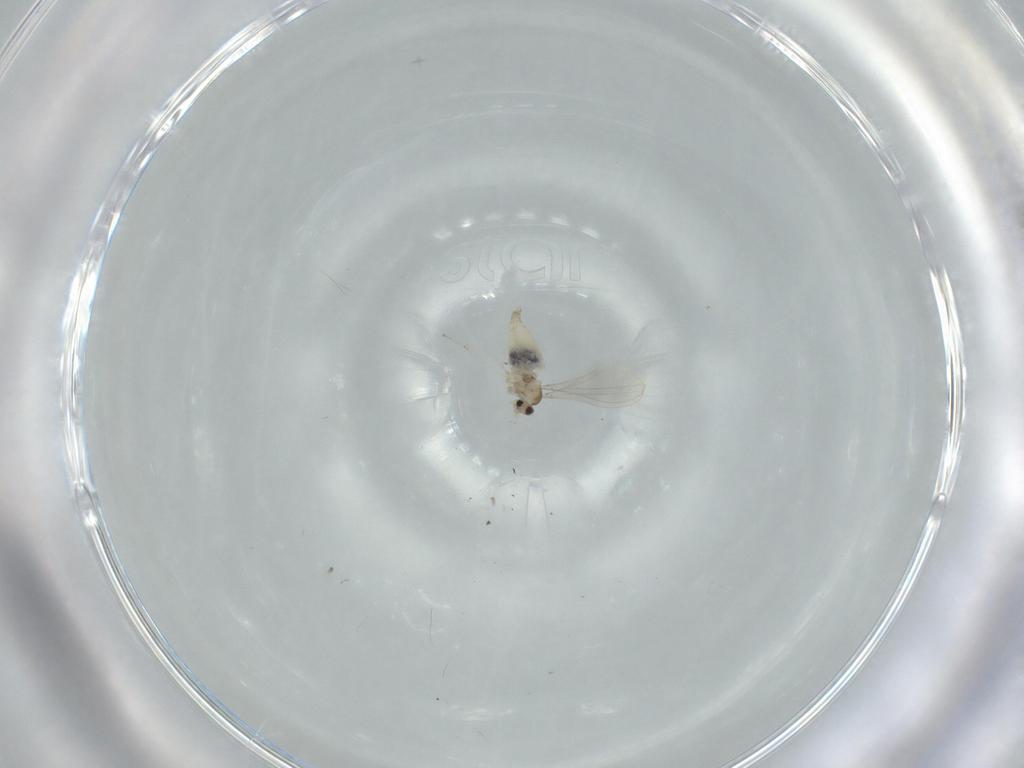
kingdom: Animalia
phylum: Arthropoda
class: Insecta
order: Diptera
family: Cecidomyiidae
